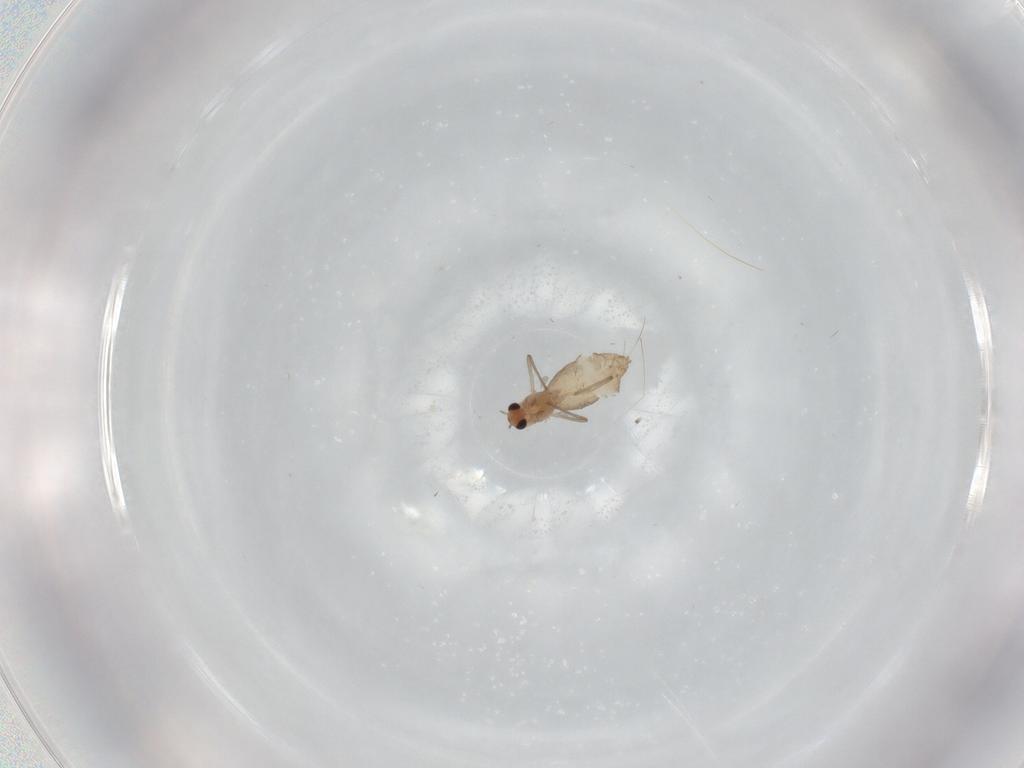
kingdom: Animalia
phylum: Arthropoda
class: Insecta
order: Diptera
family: Chironomidae
